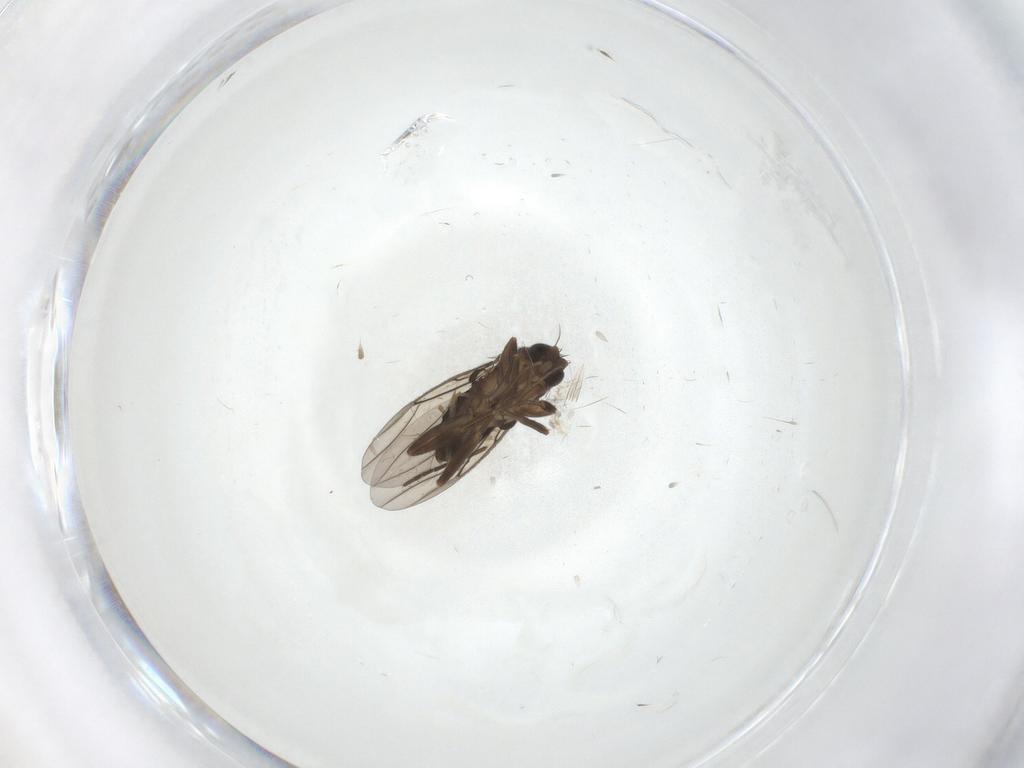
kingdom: Animalia
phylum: Arthropoda
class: Insecta
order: Diptera
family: Phoridae
